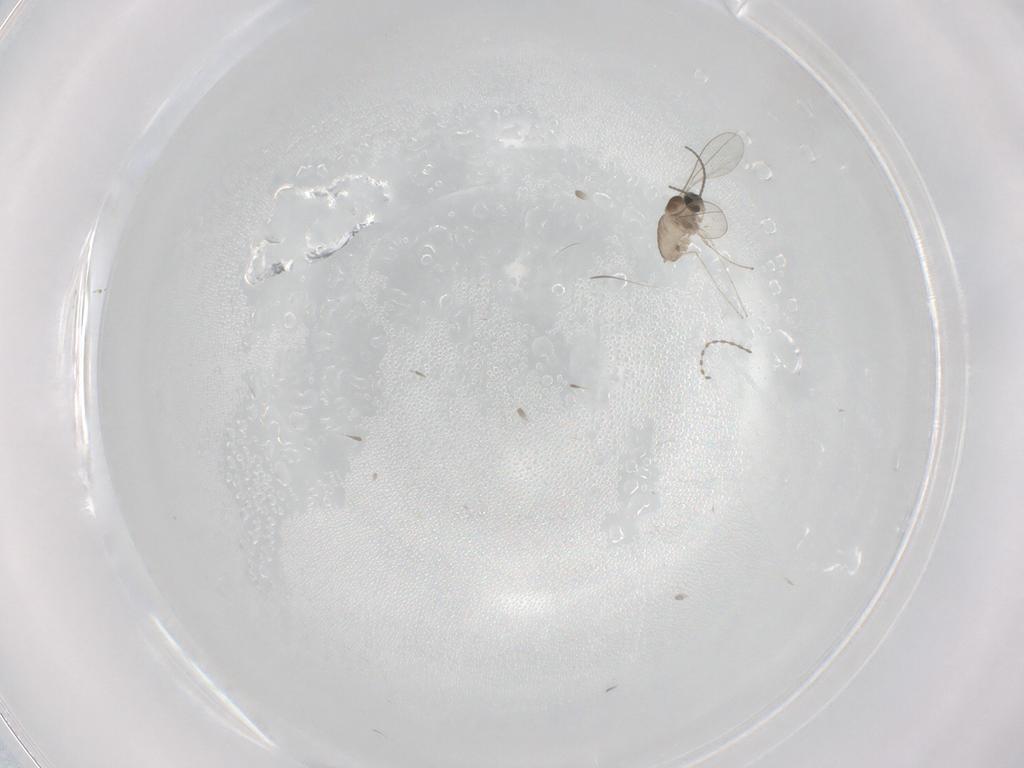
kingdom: Animalia
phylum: Arthropoda
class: Insecta
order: Diptera
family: Cecidomyiidae
